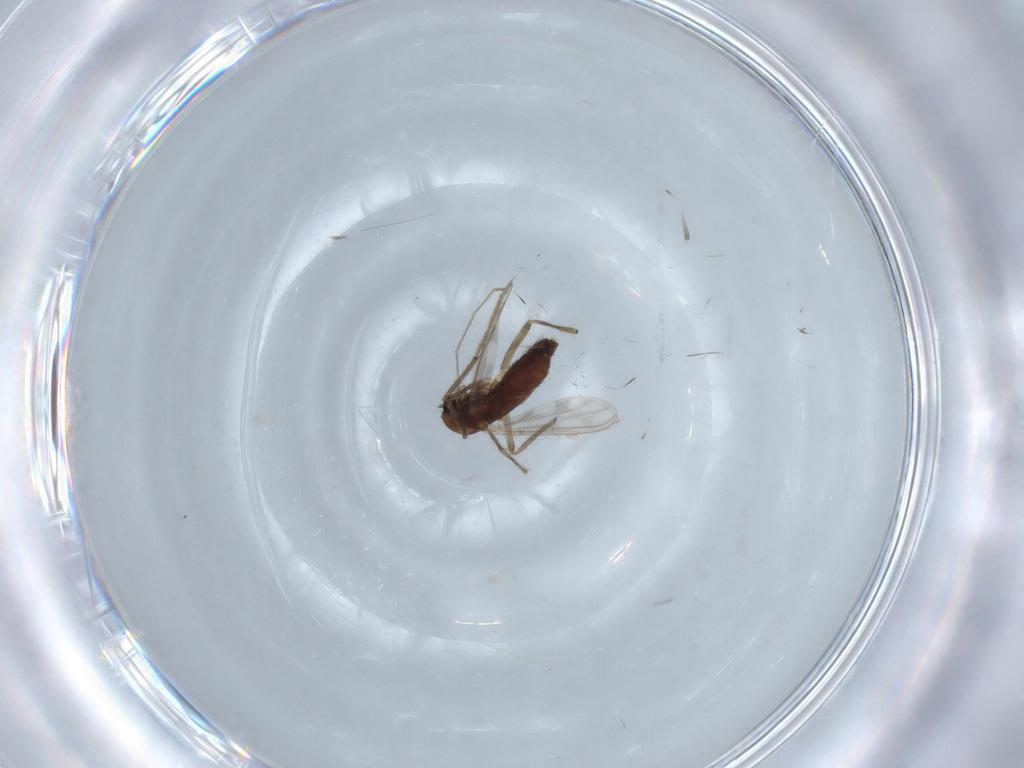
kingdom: Animalia
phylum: Arthropoda
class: Insecta
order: Diptera
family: Chironomidae
